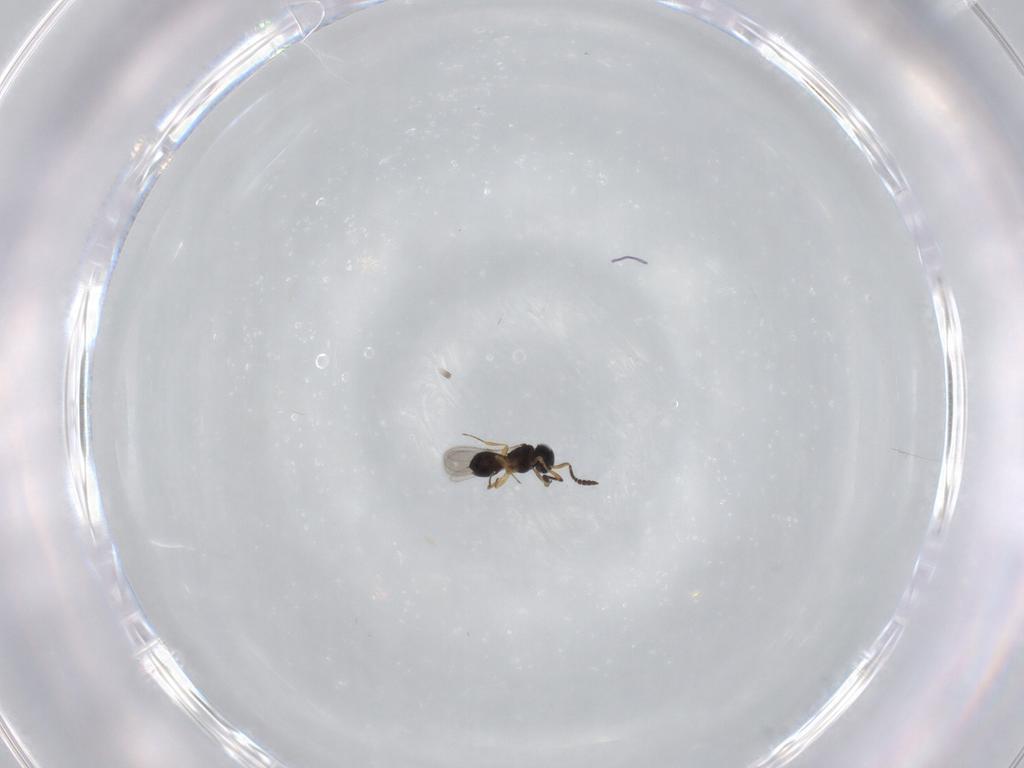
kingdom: Animalia
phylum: Arthropoda
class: Insecta
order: Hymenoptera
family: Scelionidae
